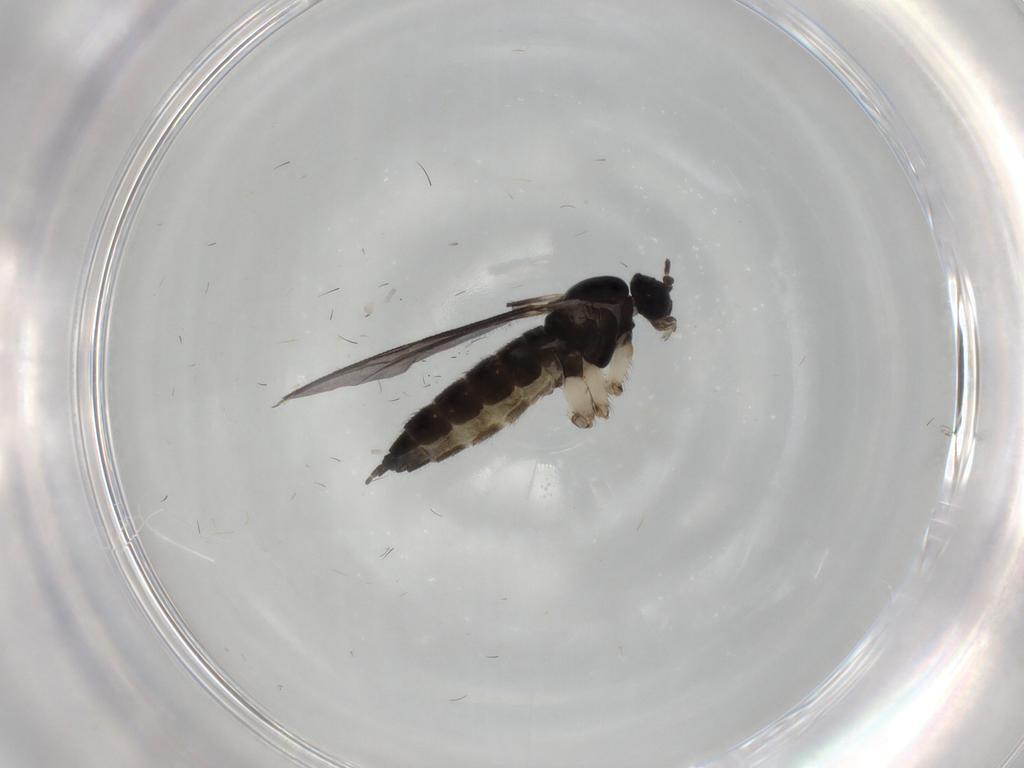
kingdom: Animalia
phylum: Arthropoda
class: Insecta
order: Diptera
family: Sciaridae
